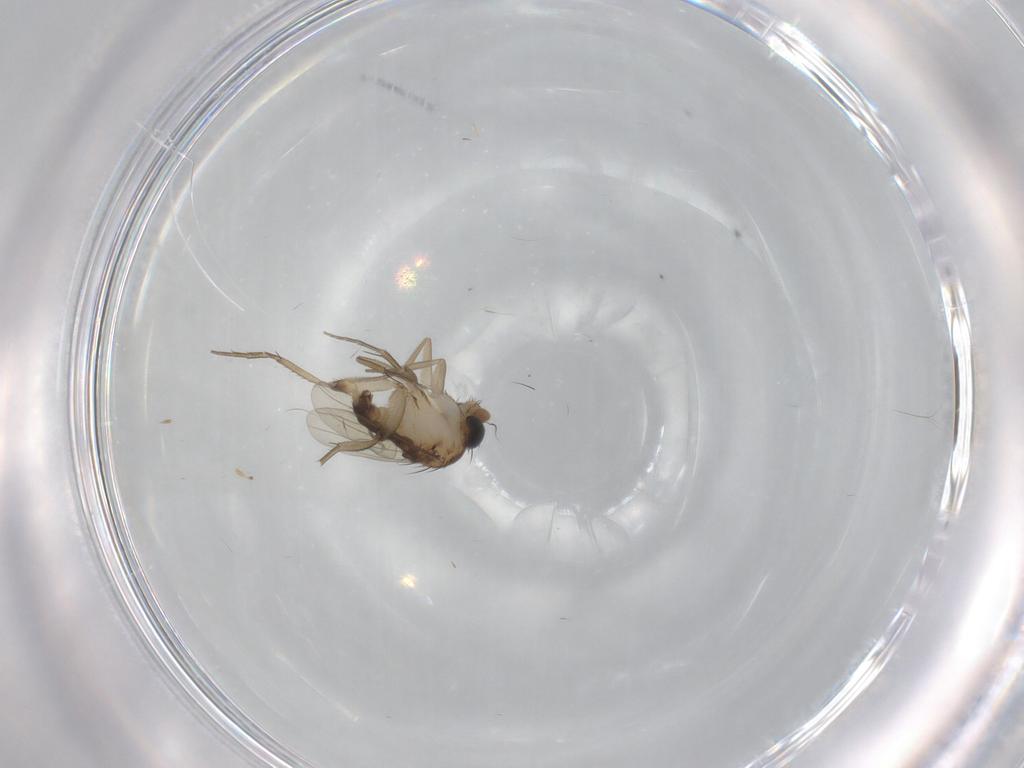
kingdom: Animalia
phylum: Arthropoda
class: Insecta
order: Diptera
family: Phoridae
